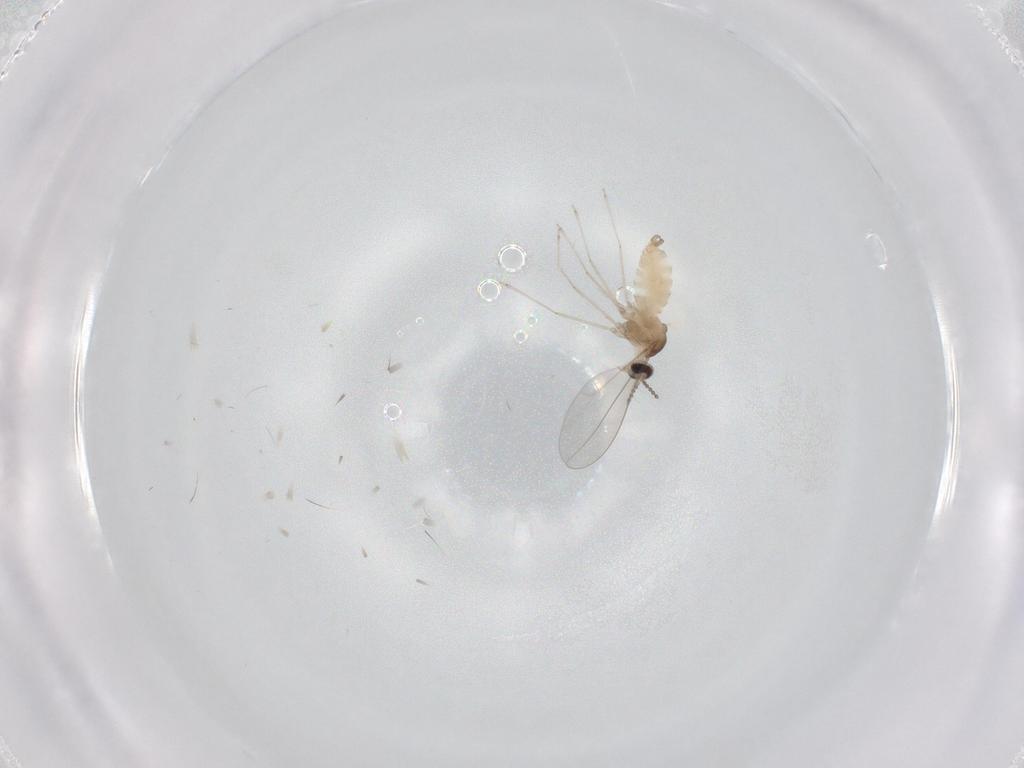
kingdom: Animalia
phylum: Arthropoda
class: Insecta
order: Diptera
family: Cecidomyiidae
